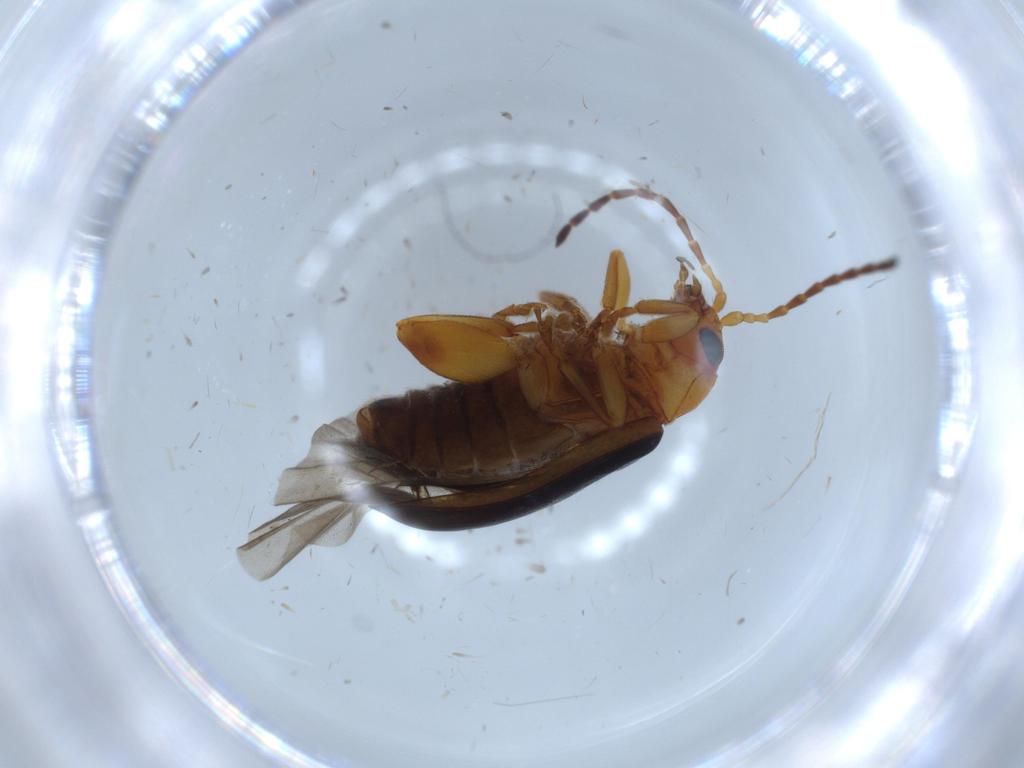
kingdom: Animalia
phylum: Arthropoda
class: Insecta
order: Coleoptera
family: Chrysomelidae
